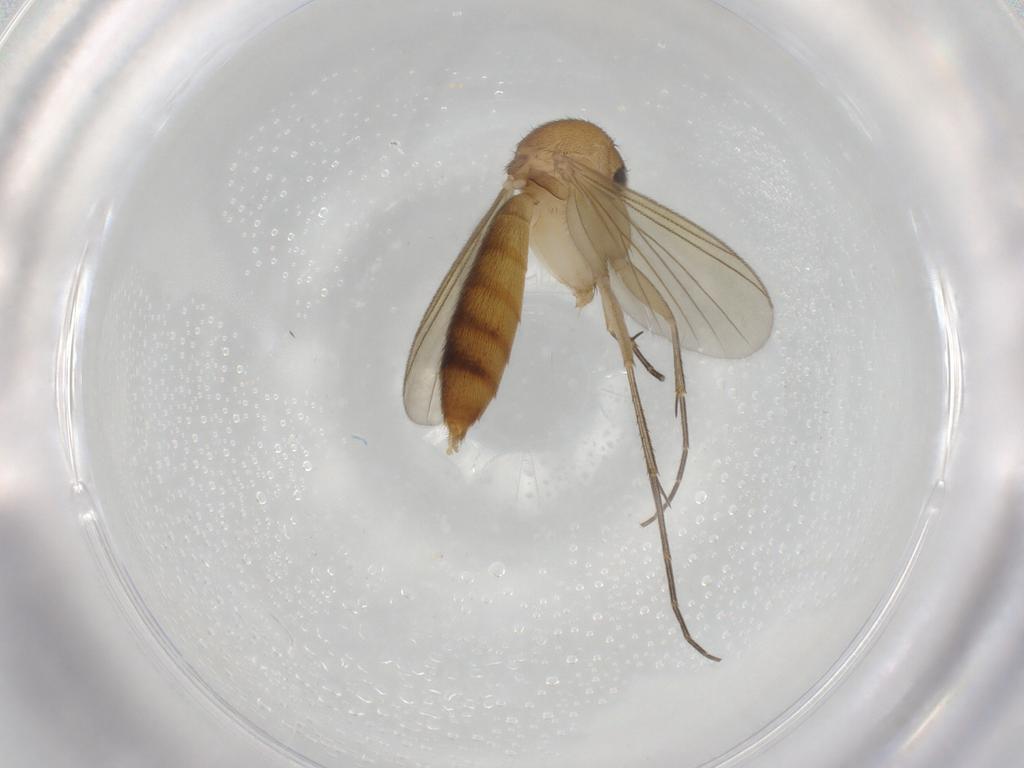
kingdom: Animalia
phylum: Arthropoda
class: Insecta
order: Diptera
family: Mycetophilidae
